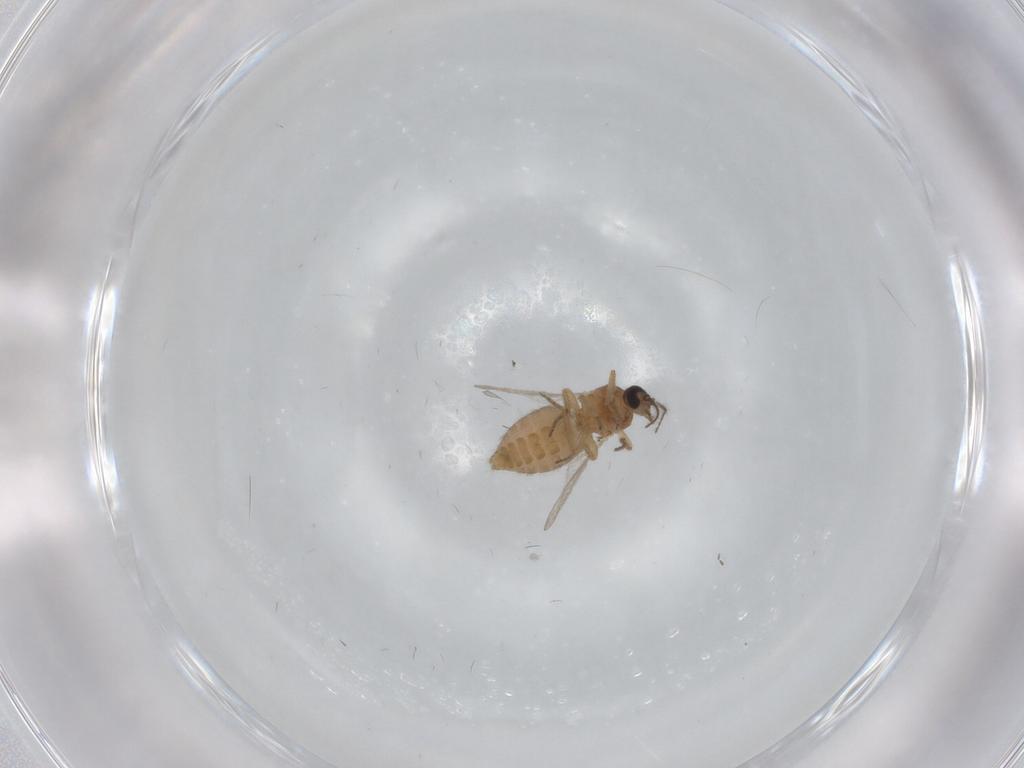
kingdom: Animalia
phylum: Arthropoda
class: Insecta
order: Diptera
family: Ceratopogonidae
